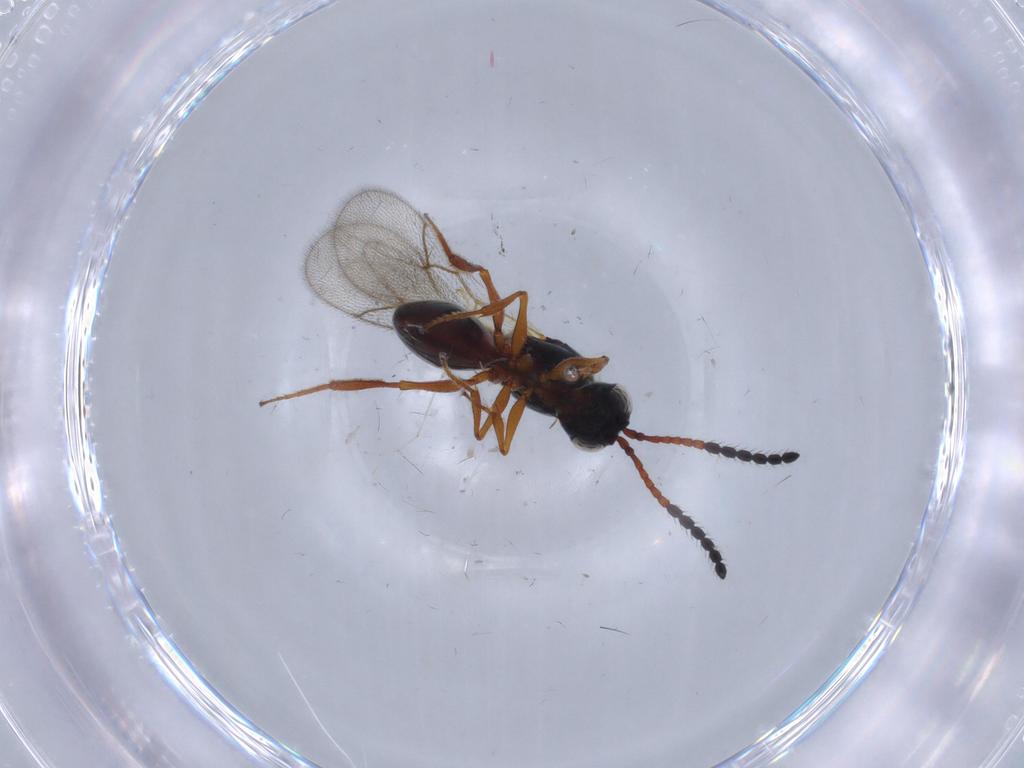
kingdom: Animalia
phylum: Arthropoda
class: Insecta
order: Hymenoptera
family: Figitidae
